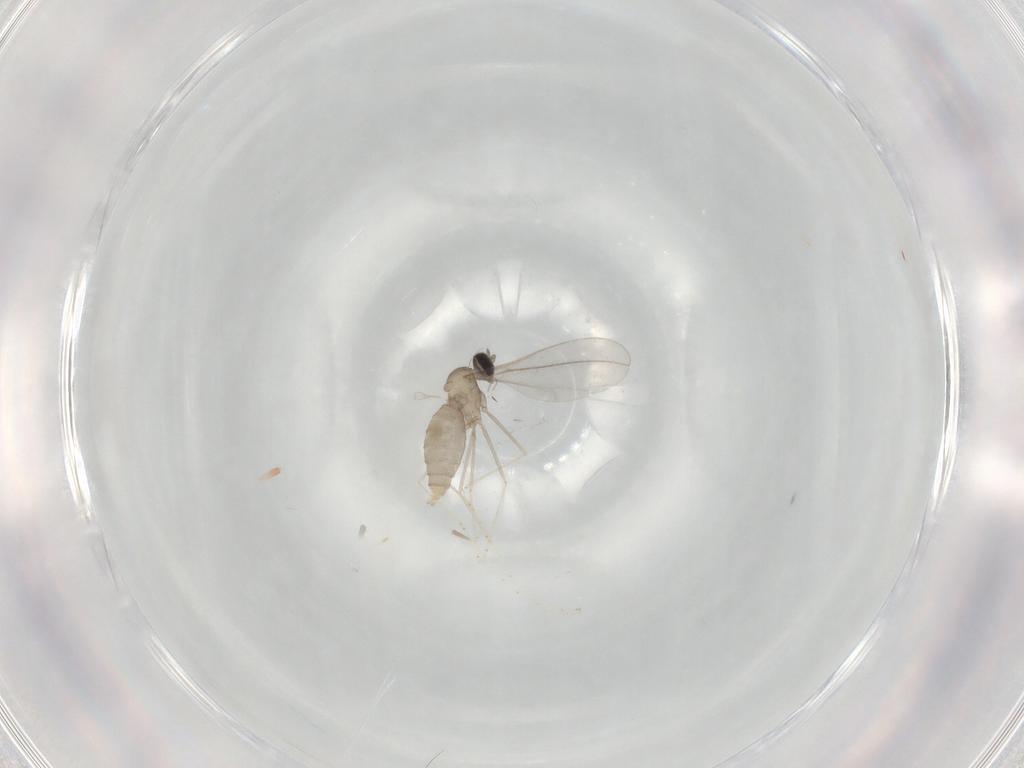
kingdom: Animalia
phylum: Arthropoda
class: Insecta
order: Diptera
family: Cecidomyiidae
